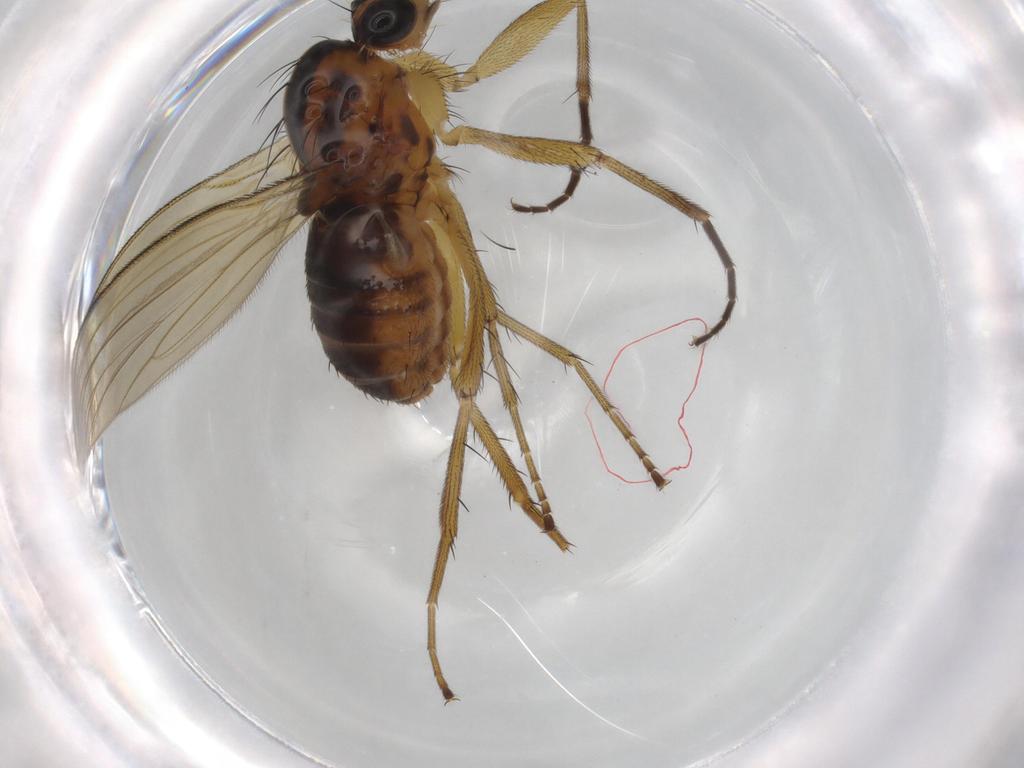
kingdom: Animalia
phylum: Arthropoda
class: Insecta
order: Diptera
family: Lonchopteridae
